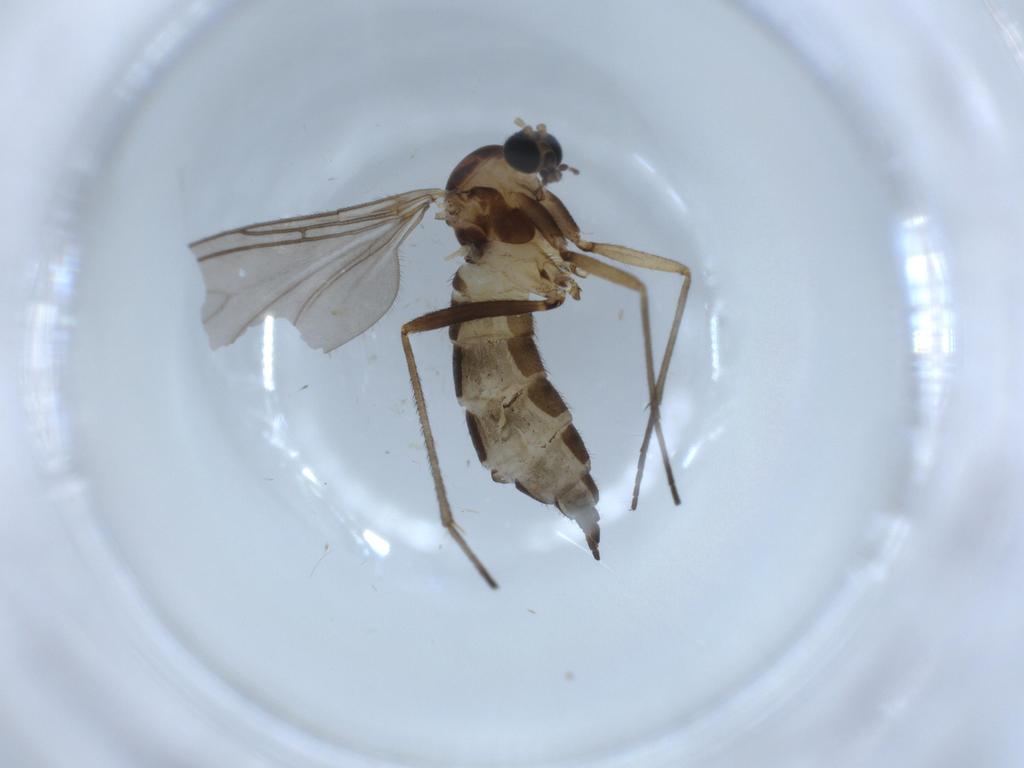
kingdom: Animalia
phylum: Arthropoda
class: Insecta
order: Diptera
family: Sciaridae
